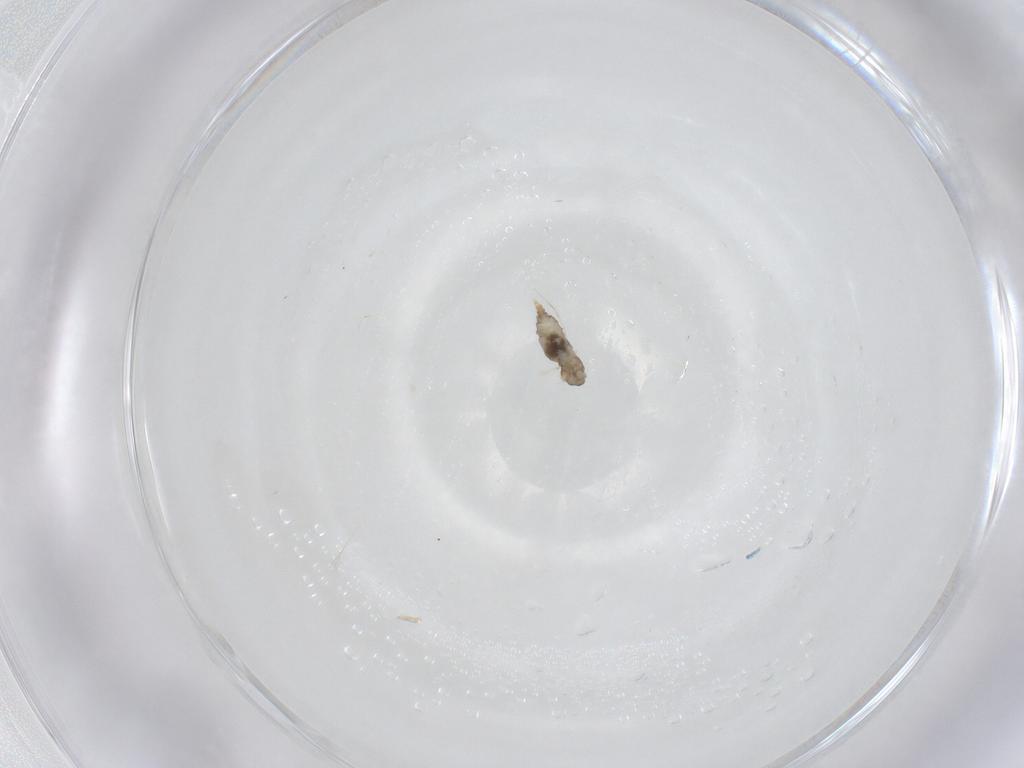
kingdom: Animalia
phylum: Arthropoda
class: Insecta
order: Diptera
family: Cecidomyiidae
